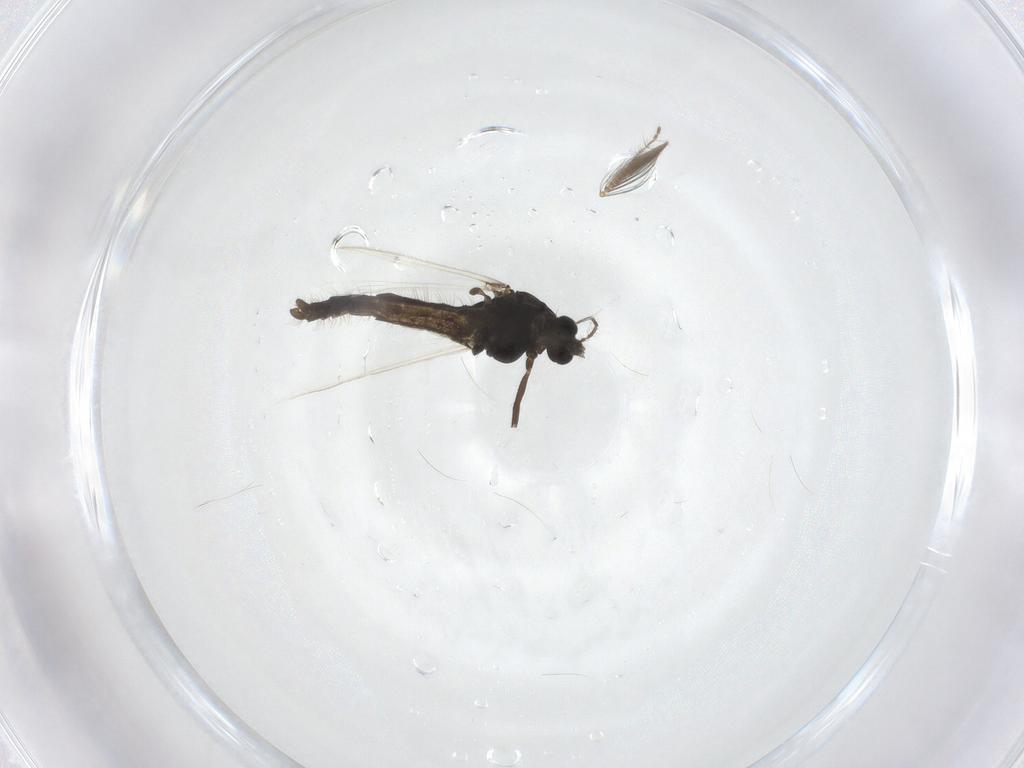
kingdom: Animalia
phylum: Arthropoda
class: Insecta
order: Diptera
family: Ceratopogonidae
